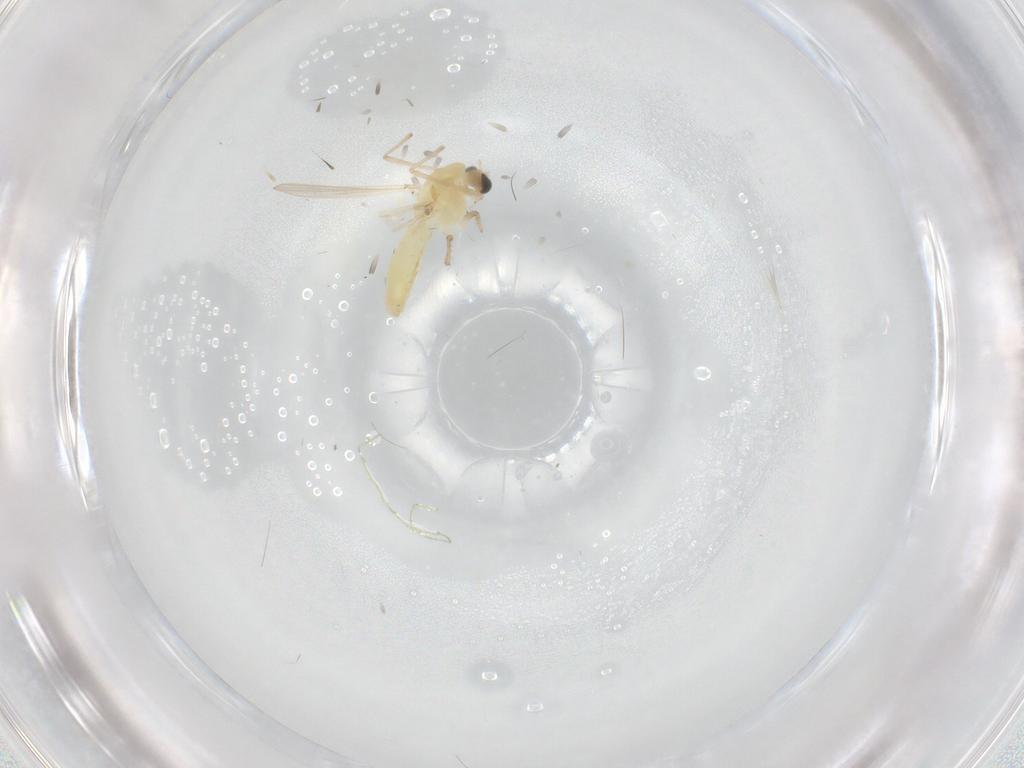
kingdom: Animalia
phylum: Arthropoda
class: Insecta
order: Diptera
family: Chironomidae
